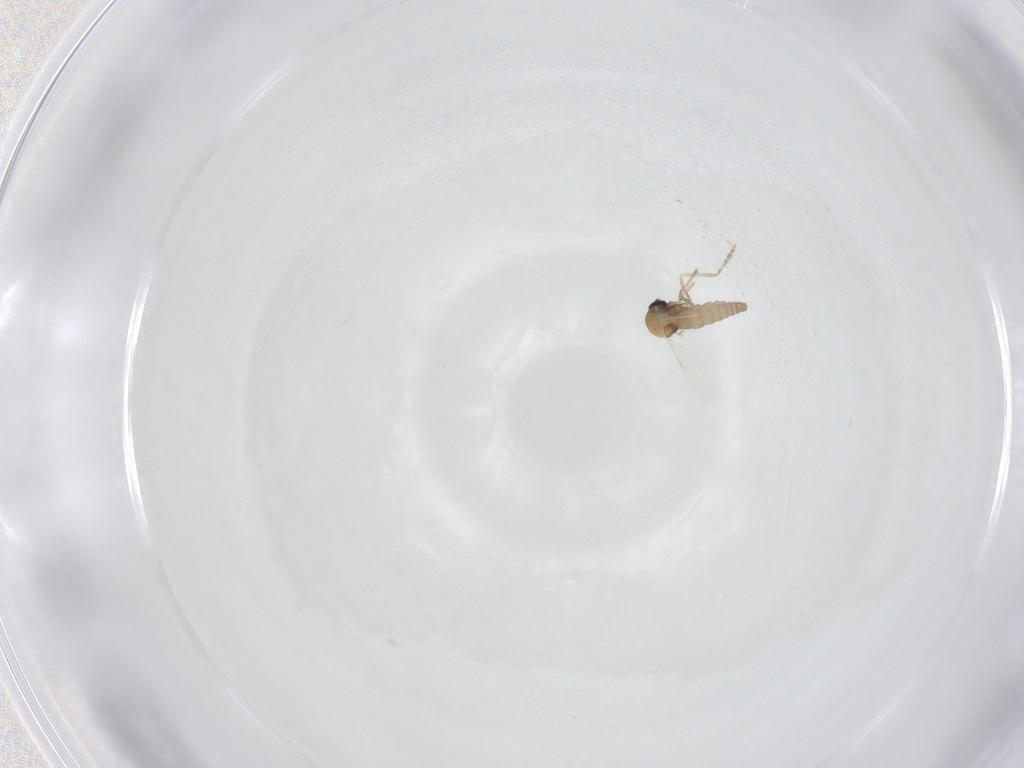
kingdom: Animalia
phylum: Arthropoda
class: Insecta
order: Diptera
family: Ceratopogonidae
